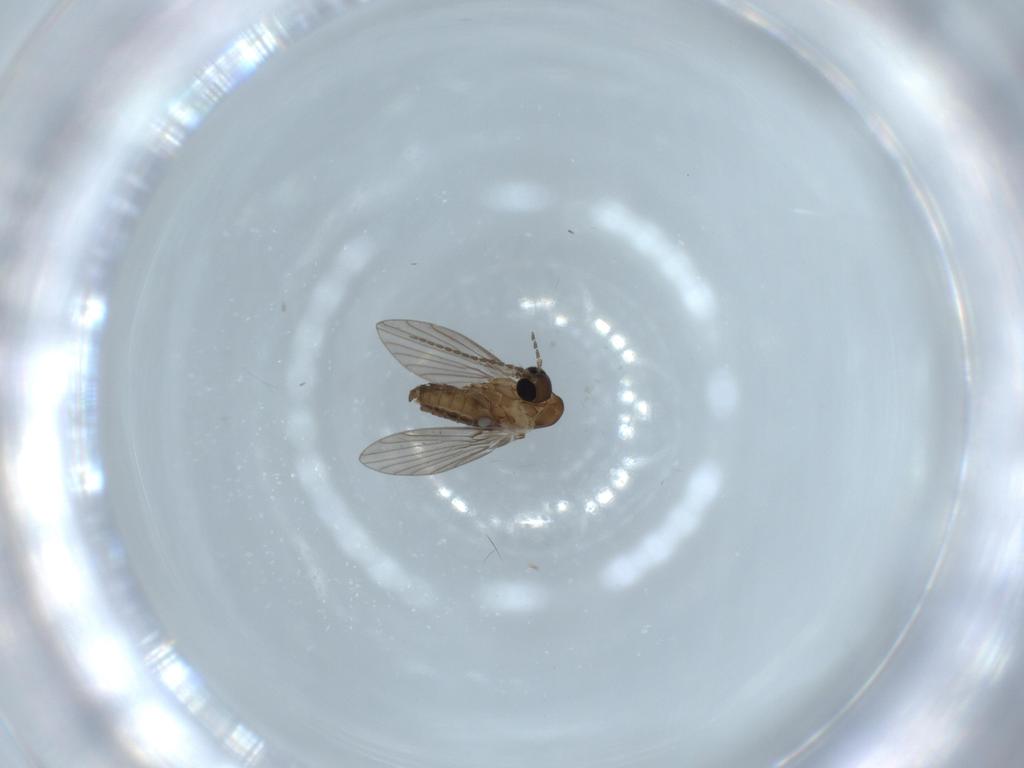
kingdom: Animalia
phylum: Arthropoda
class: Insecta
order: Diptera
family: Psychodidae
